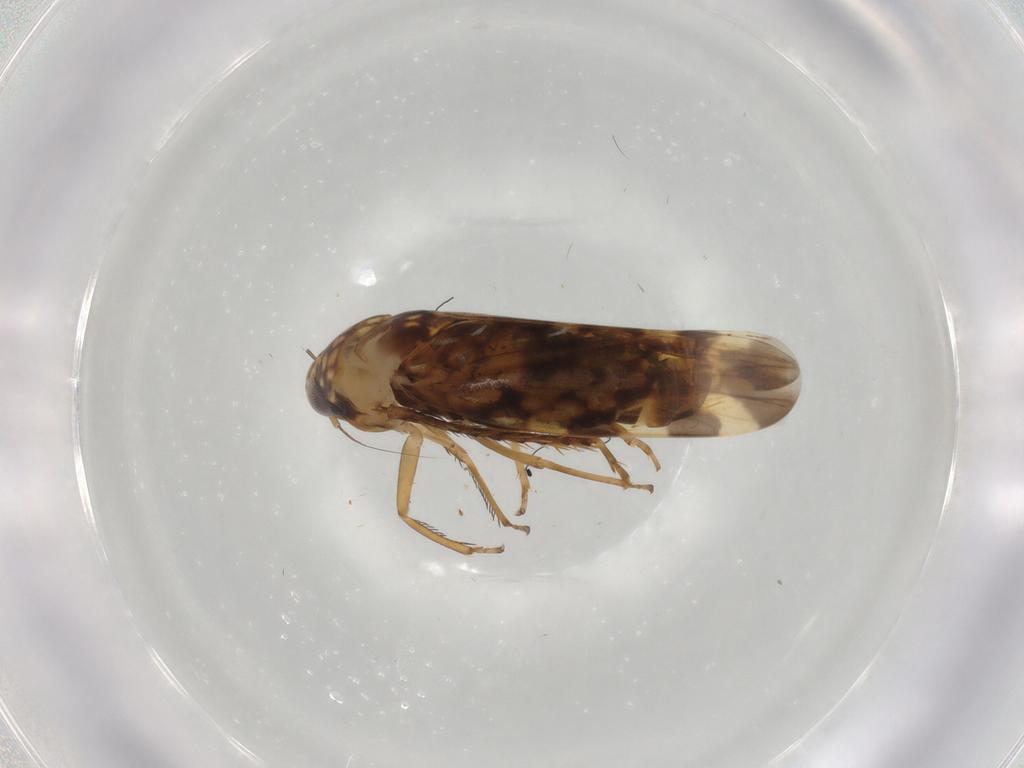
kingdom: Animalia
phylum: Arthropoda
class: Insecta
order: Hemiptera
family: Cicadellidae
